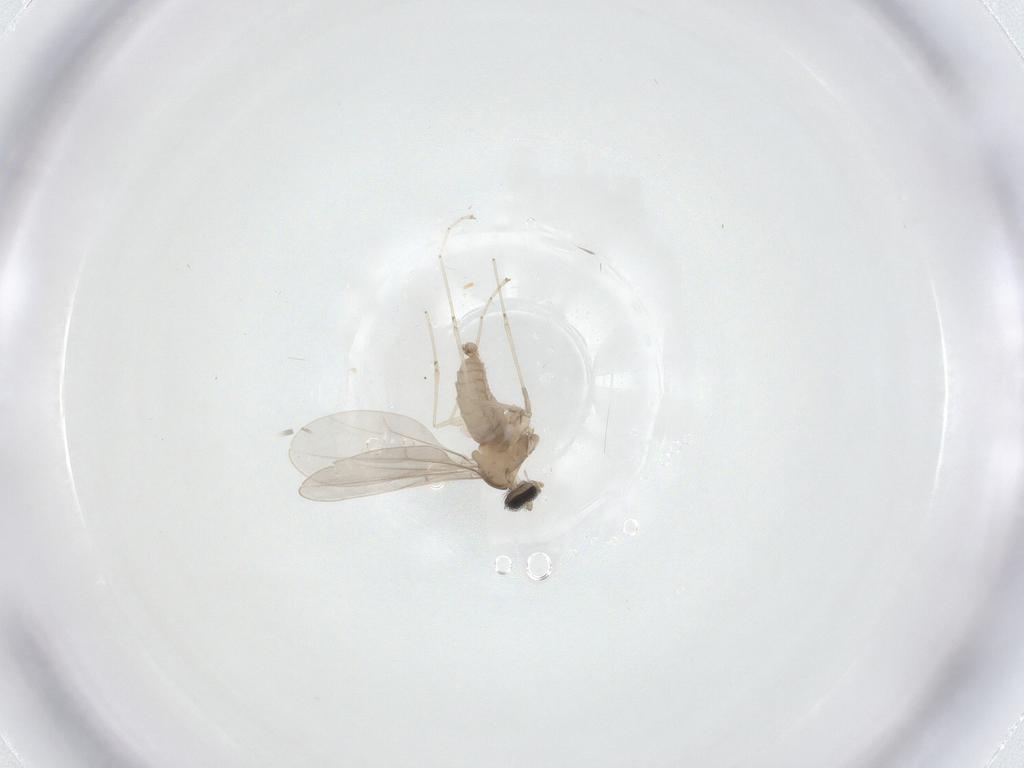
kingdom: Animalia
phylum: Arthropoda
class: Insecta
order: Diptera
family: Cecidomyiidae
